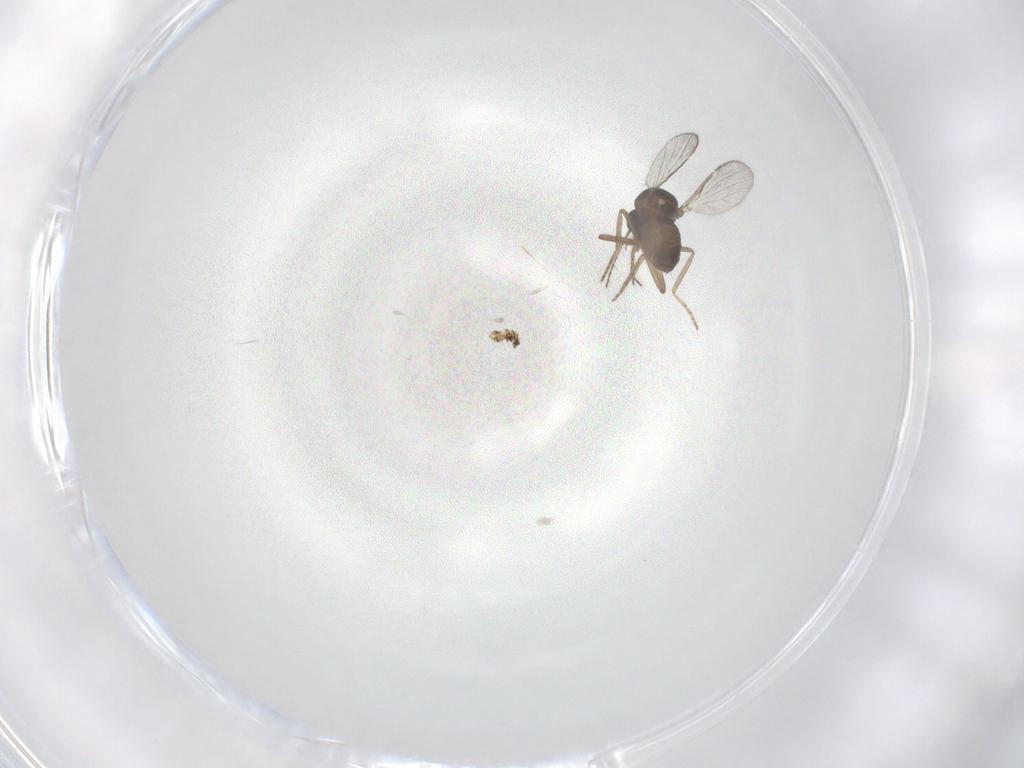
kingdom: Animalia
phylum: Arthropoda
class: Insecta
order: Diptera
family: Ceratopogonidae
